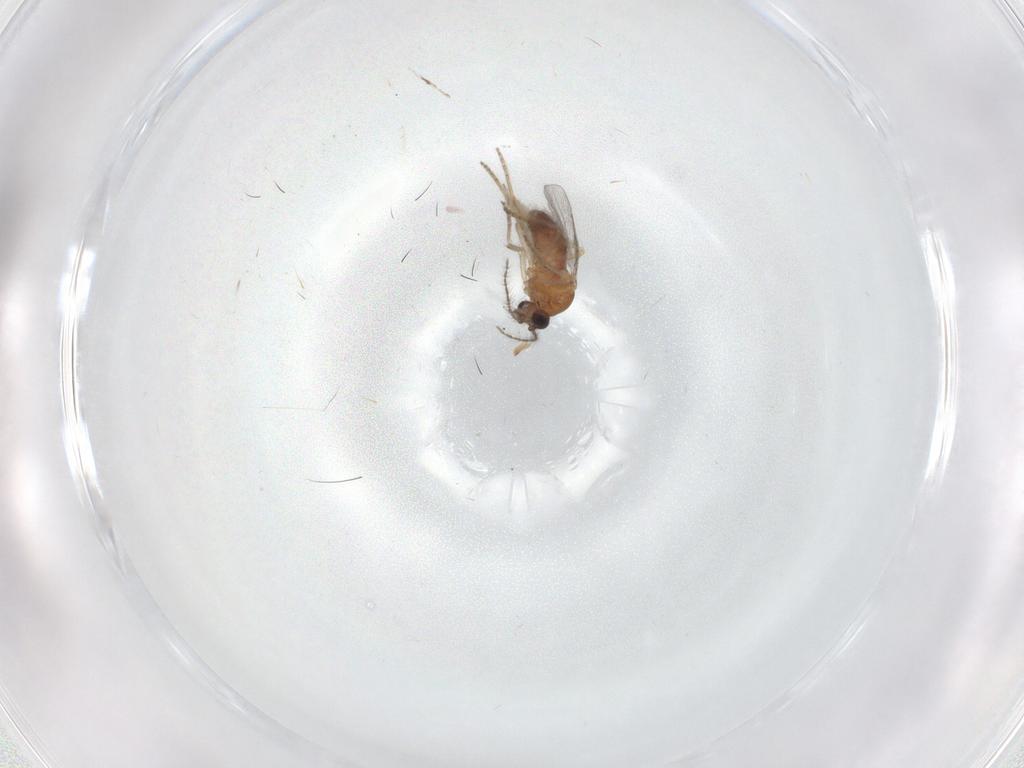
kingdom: Animalia
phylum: Arthropoda
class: Insecta
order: Diptera
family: Ceratopogonidae
